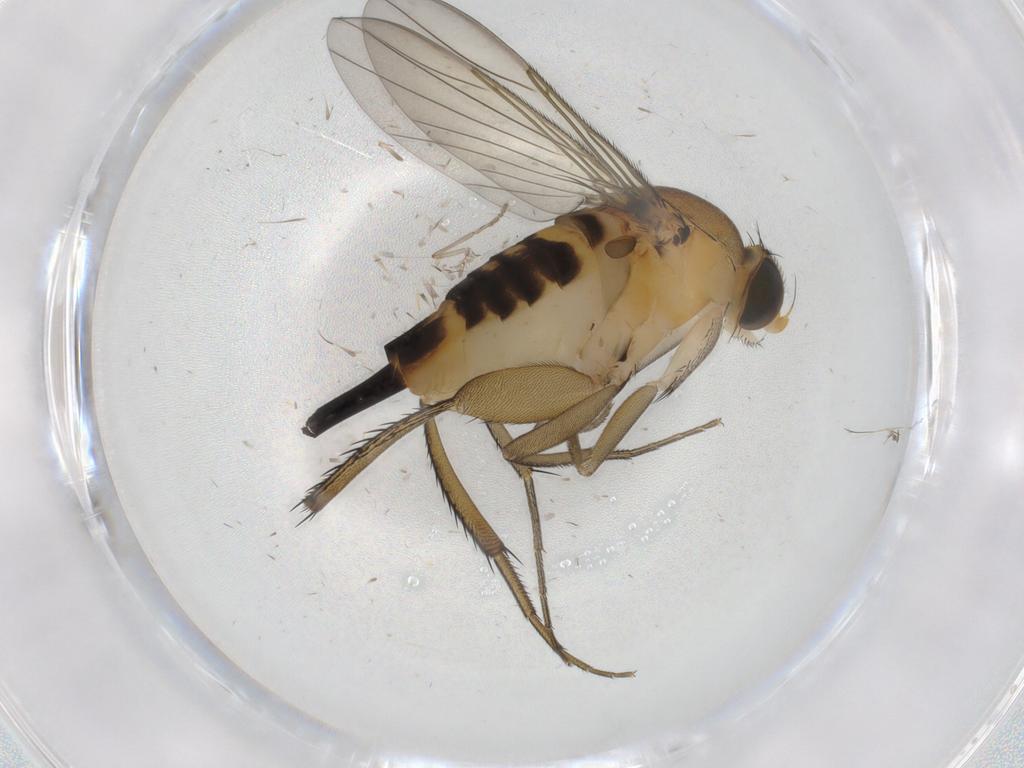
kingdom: Animalia
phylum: Arthropoda
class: Insecta
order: Diptera
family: Phoridae
